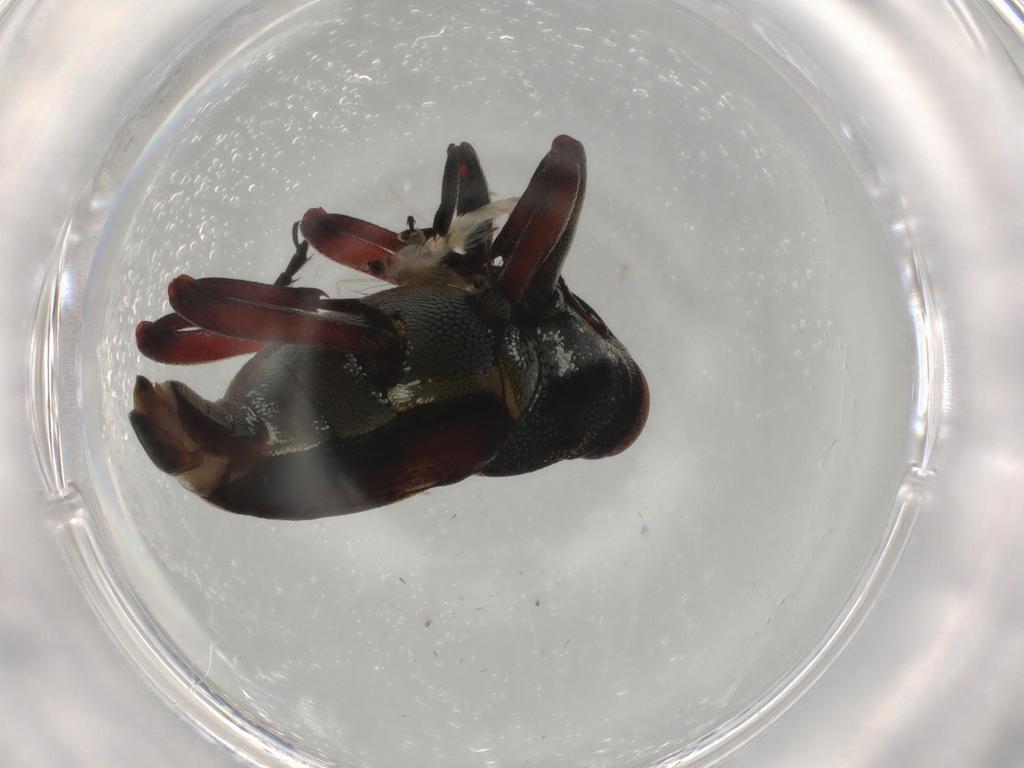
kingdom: Animalia
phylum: Arthropoda
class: Insecta
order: Coleoptera
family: Curculionidae
